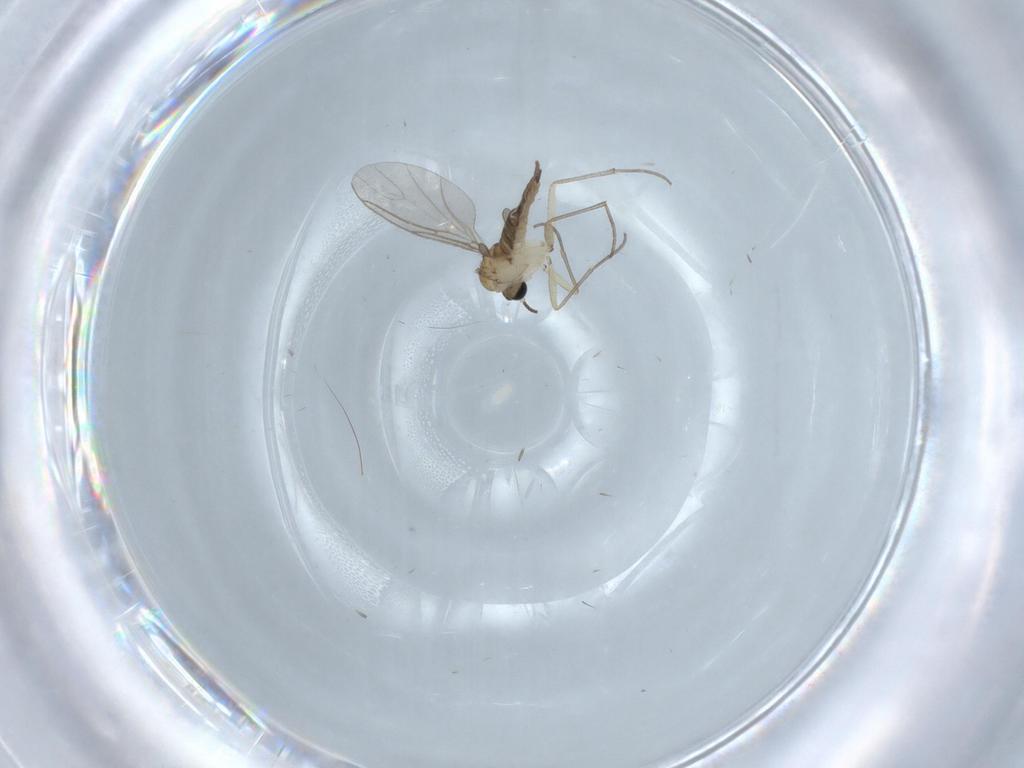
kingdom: Animalia
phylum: Arthropoda
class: Insecta
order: Diptera
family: Sciaridae
